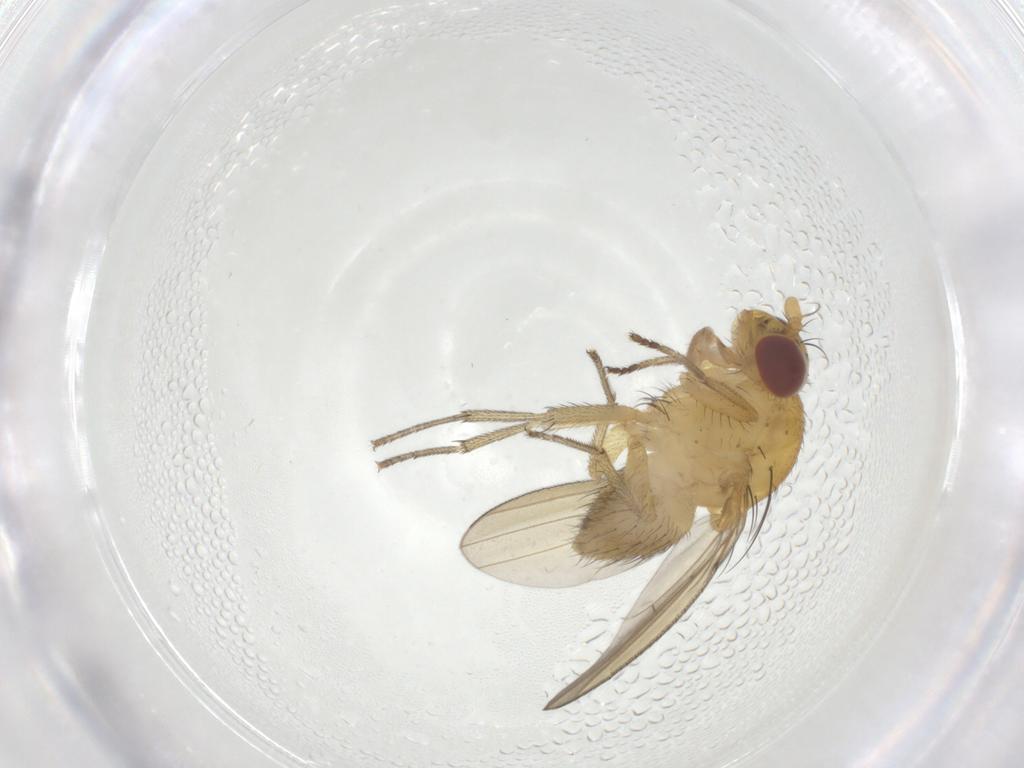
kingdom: Animalia
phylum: Arthropoda
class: Insecta
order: Diptera
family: Lauxaniidae
